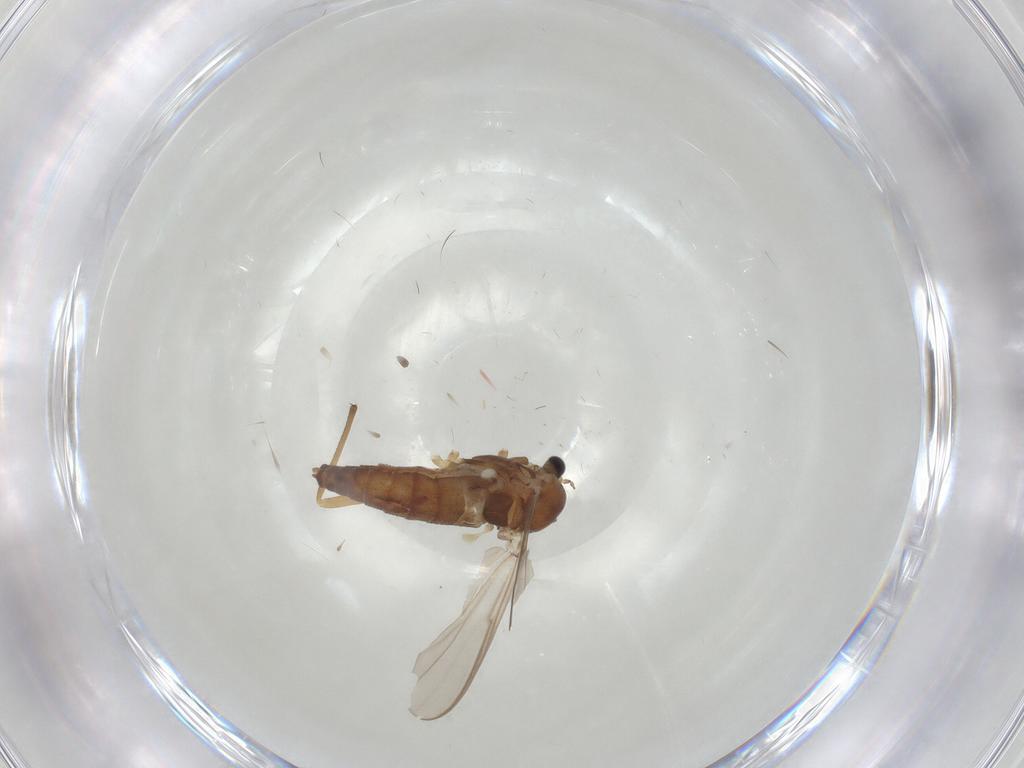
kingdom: Animalia
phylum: Arthropoda
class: Insecta
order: Diptera
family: Chironomidae
